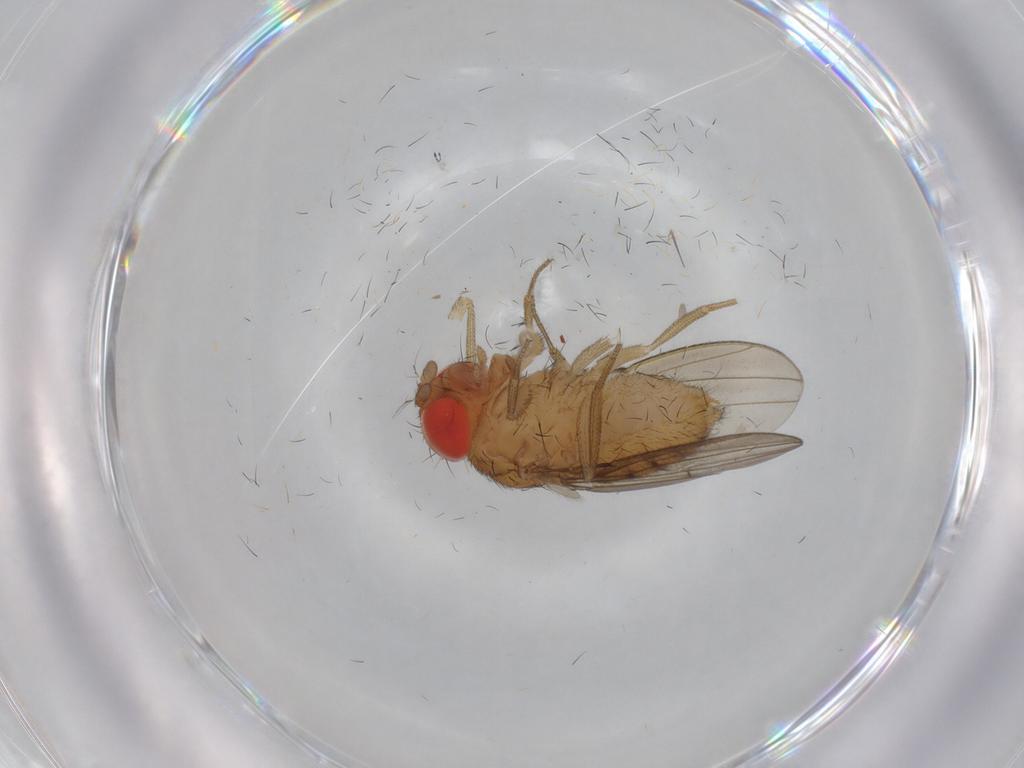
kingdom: Animalia
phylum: Arthropoda
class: Insecta
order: Diptera
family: Drosophilidae
